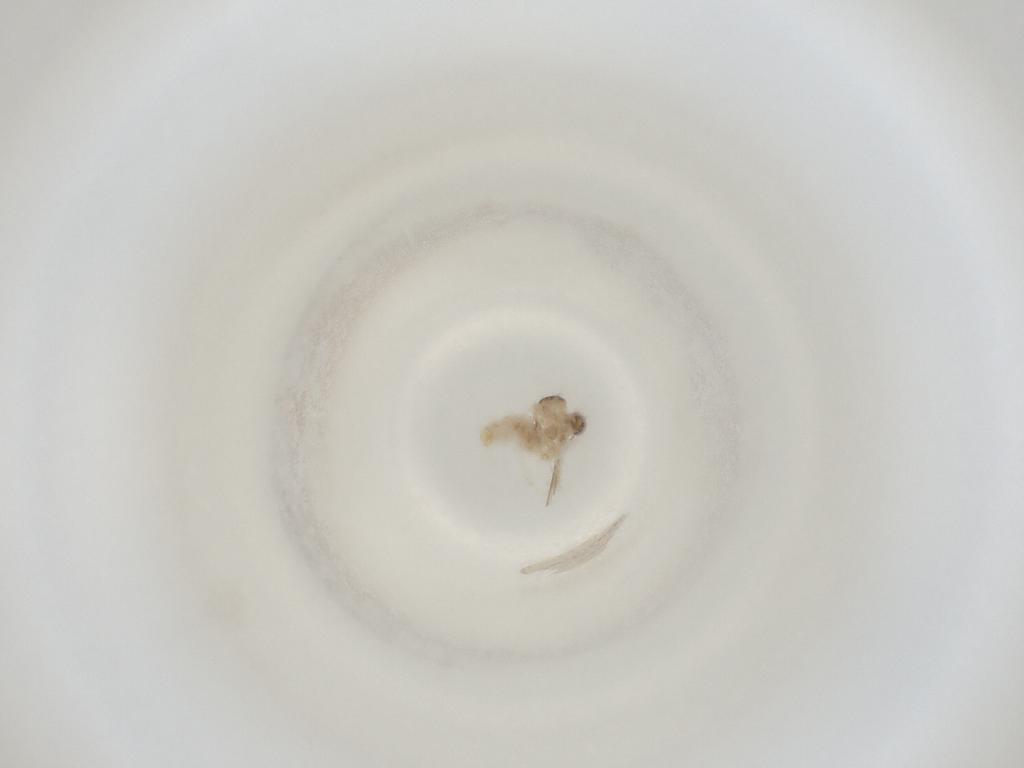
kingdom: Animalia
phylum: Arthropoda
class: Insecta
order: Diptera
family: Cecidomyiidae
